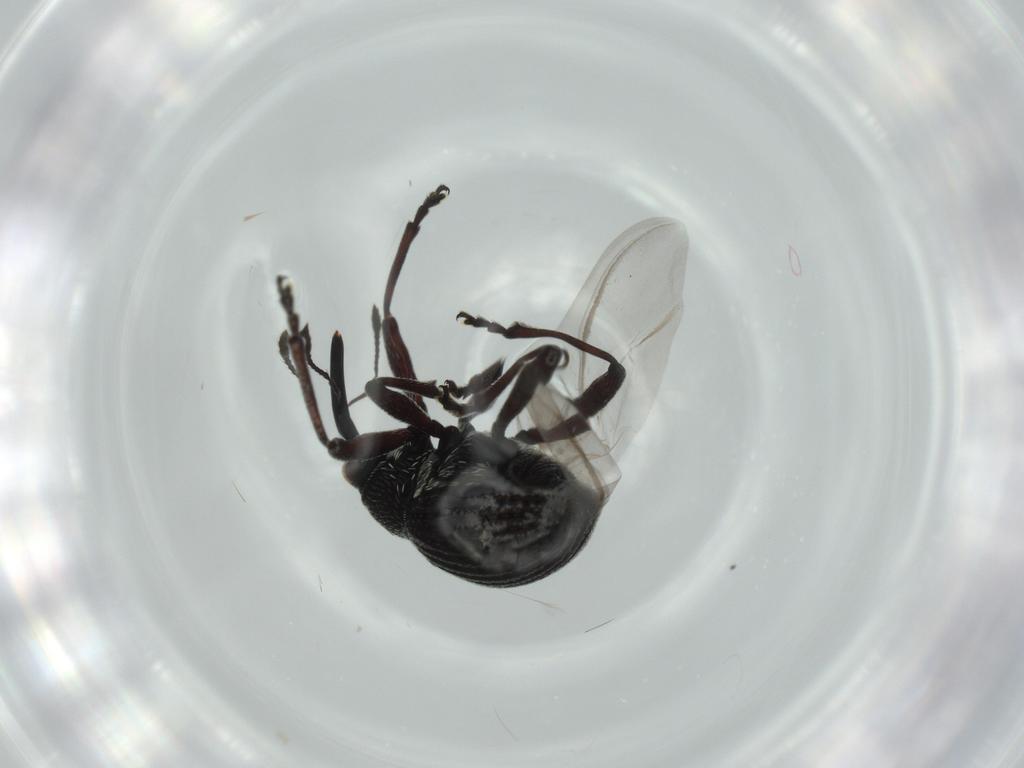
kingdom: Animalia
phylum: Arthropoda
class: Insecta
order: Coleoptera
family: Brentidae
